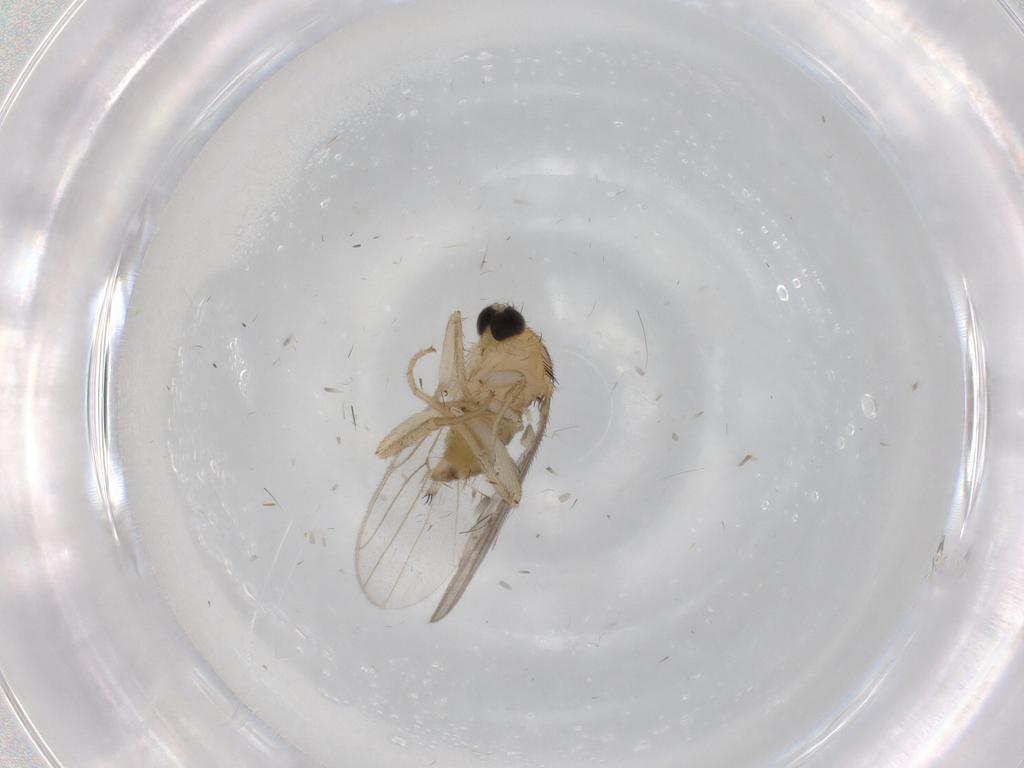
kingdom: Animalia
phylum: Arthropoda
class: Insecta
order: Diptera
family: Hybotidae
